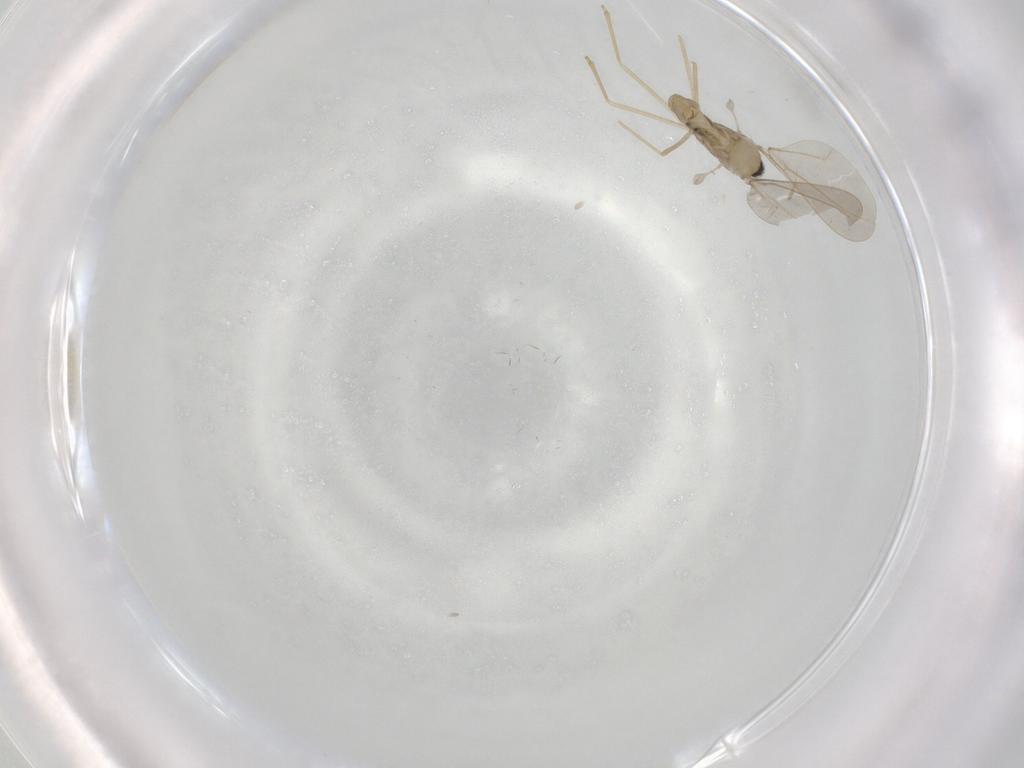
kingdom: Animalia
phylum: Arthropoda
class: Insecta
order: Diptera
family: Cecidomyiidae
